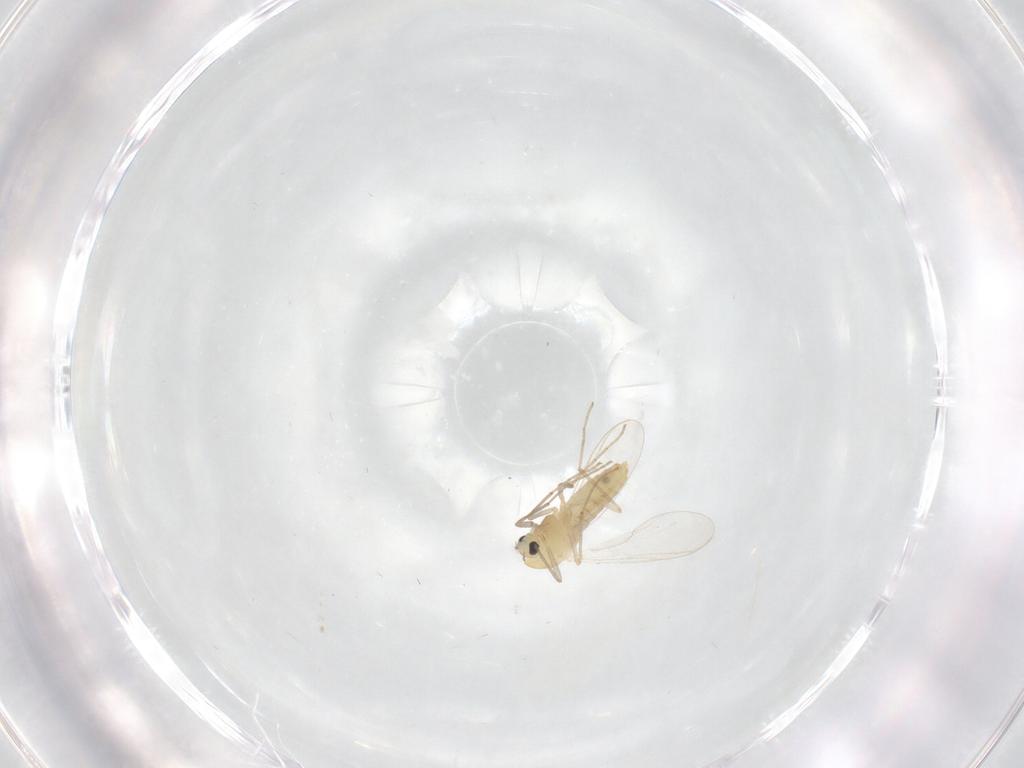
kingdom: Animalia
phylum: Arthropoda
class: Insecta
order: Diptera
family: Chironomidae
